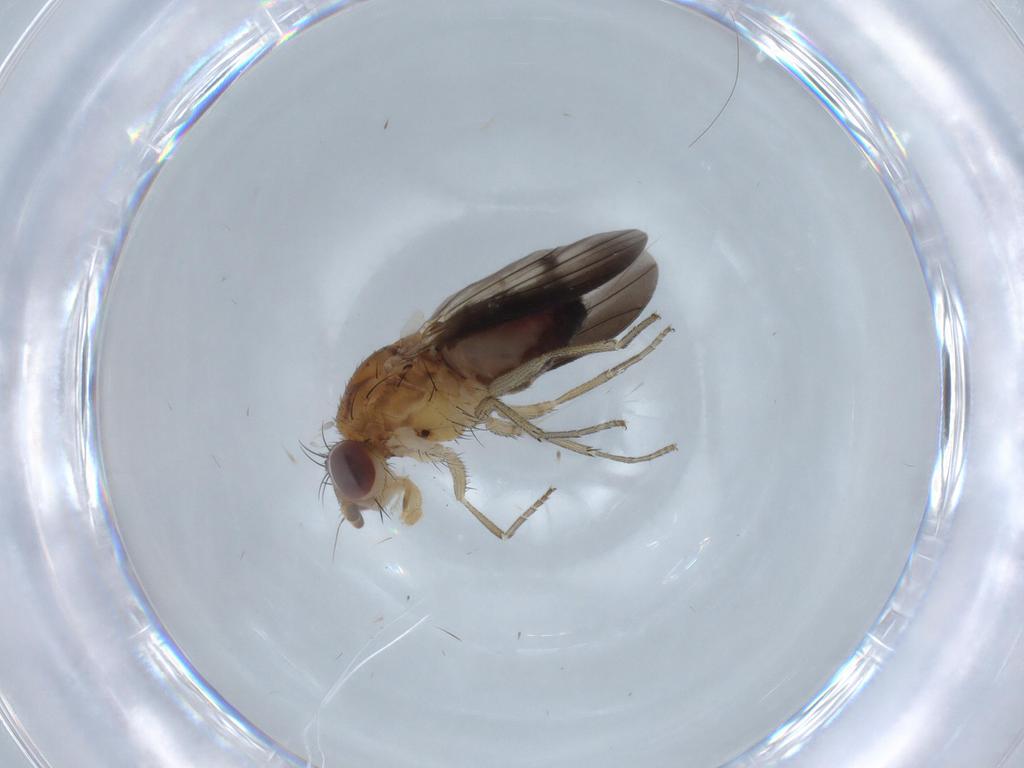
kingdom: Animalia
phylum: Arthropoda
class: Insecta
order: Diptera
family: Heleomyzidae
